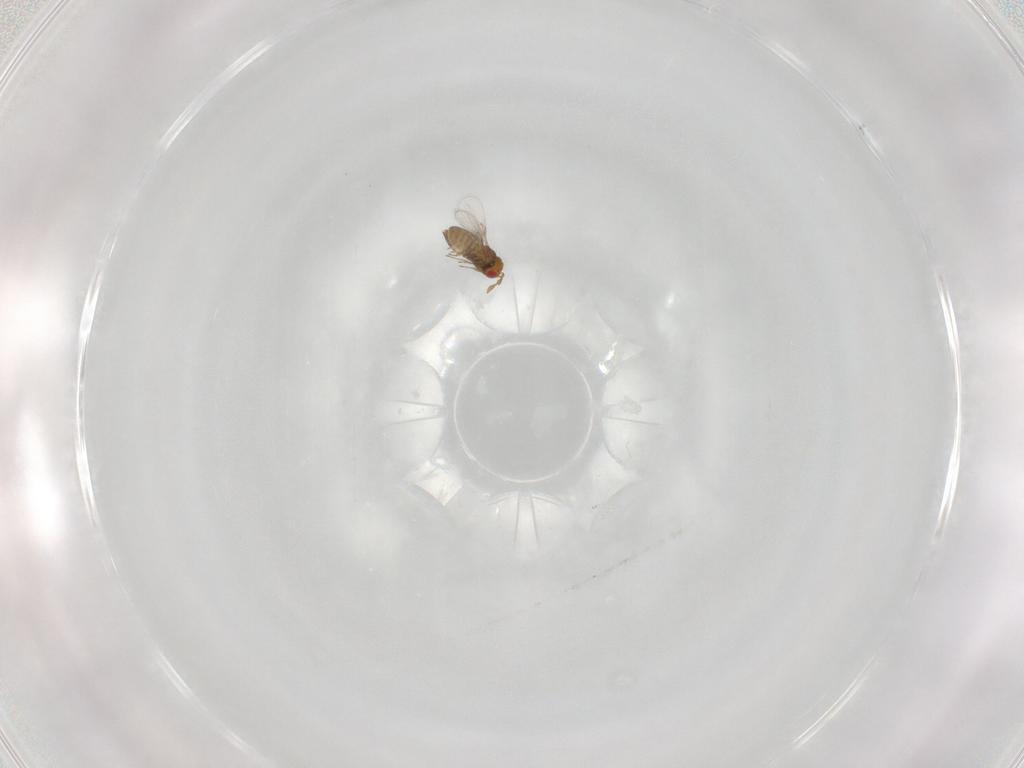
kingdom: Animalia
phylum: Arthropoda
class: Insecta
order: Hymenoptera
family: Trichogrammatidae
